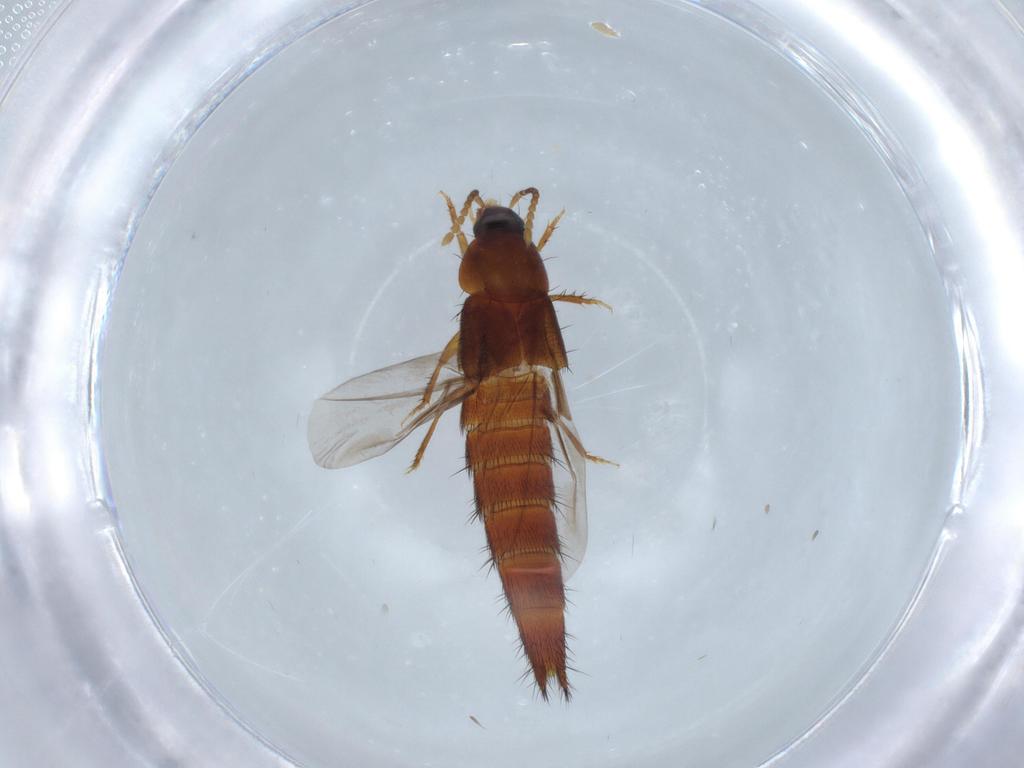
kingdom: Animalia
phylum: Arthropoda
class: Insecta
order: Coleoptera
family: Staphylinidae
